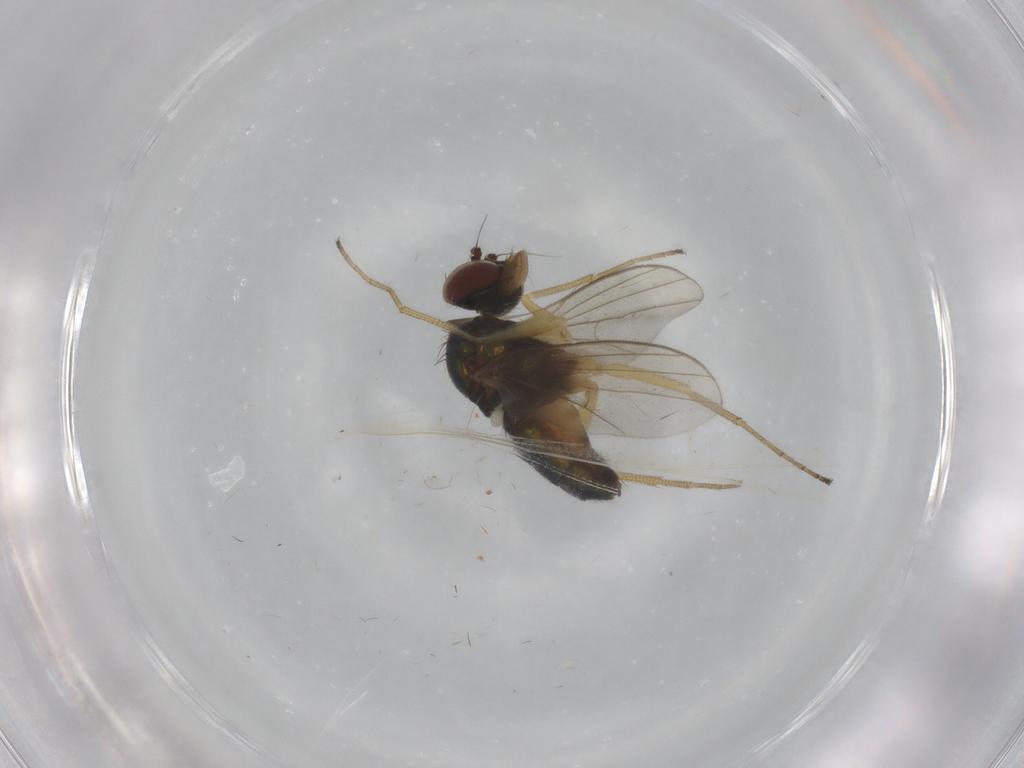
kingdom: Animalia
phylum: Arthropoda
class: Insecta
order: Diptera
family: Dolichopodidae
